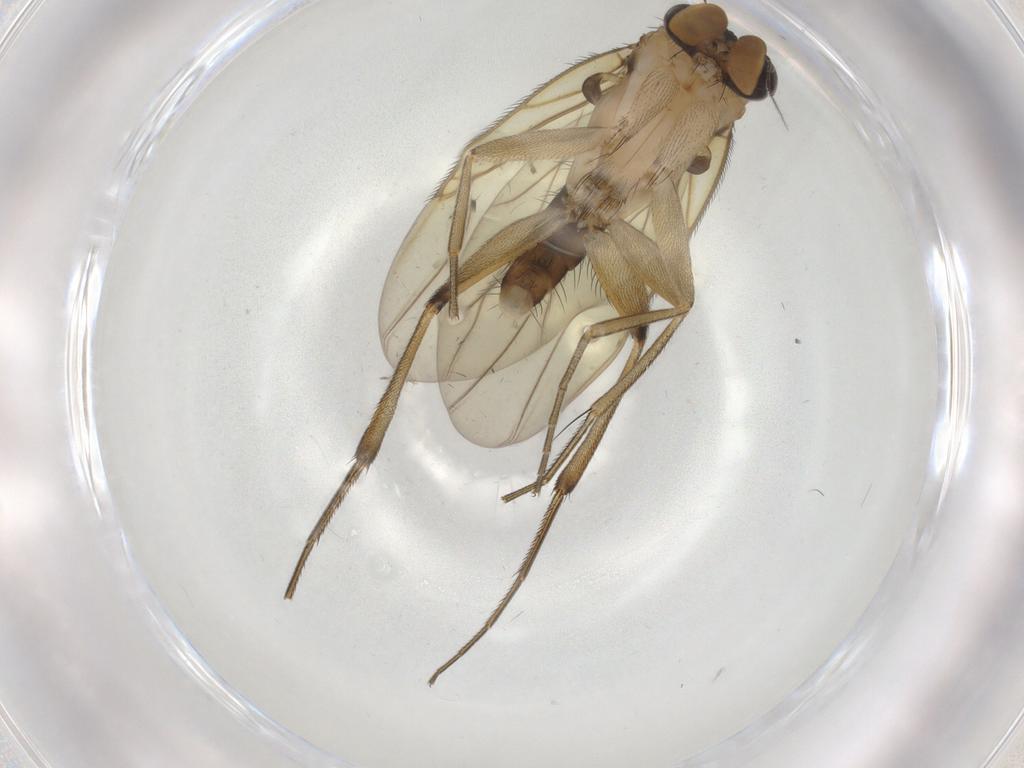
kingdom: Animalia
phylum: Arthropoda
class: Insecta
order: Diptera
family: Phoridae
